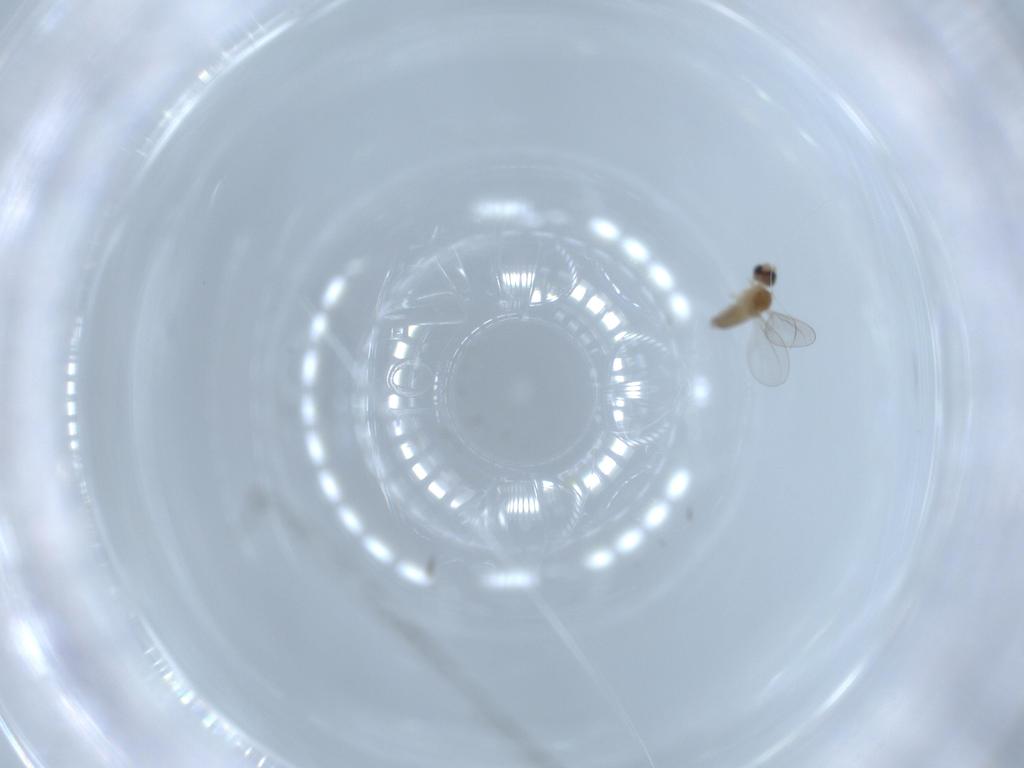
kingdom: Animalia
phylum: Arthropoda
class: Insecta
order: Diptera
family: Cecidomyiidae
